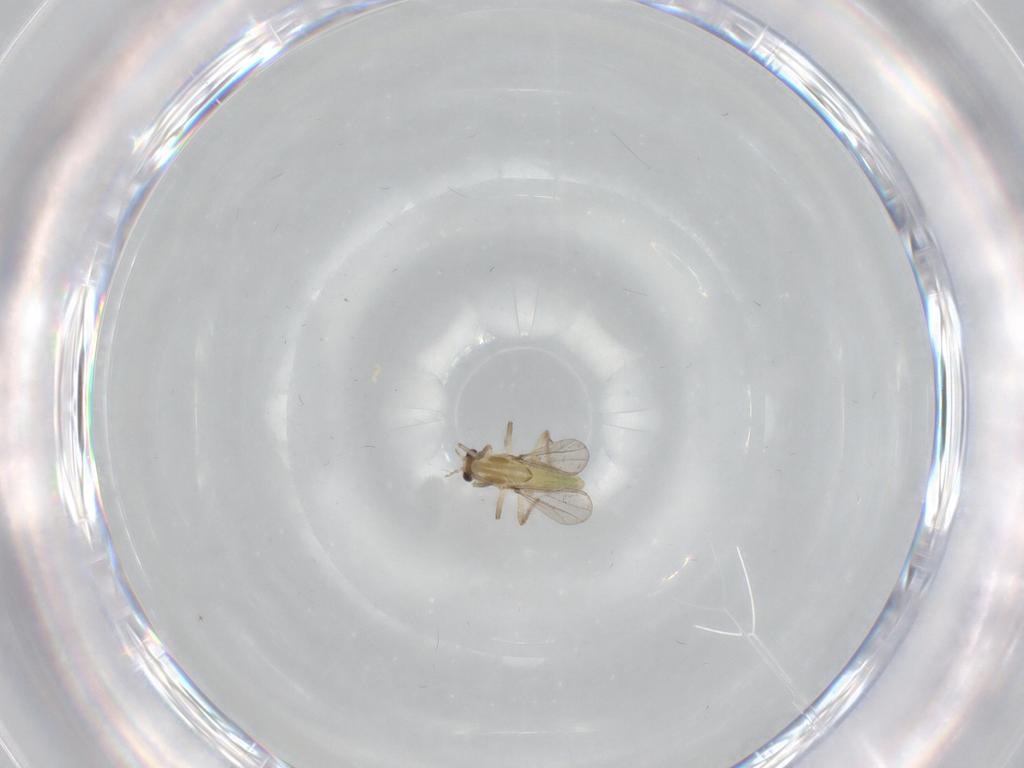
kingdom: Animalia
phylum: Arthropoda
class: Insecta
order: Diptera
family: Chironomidae
